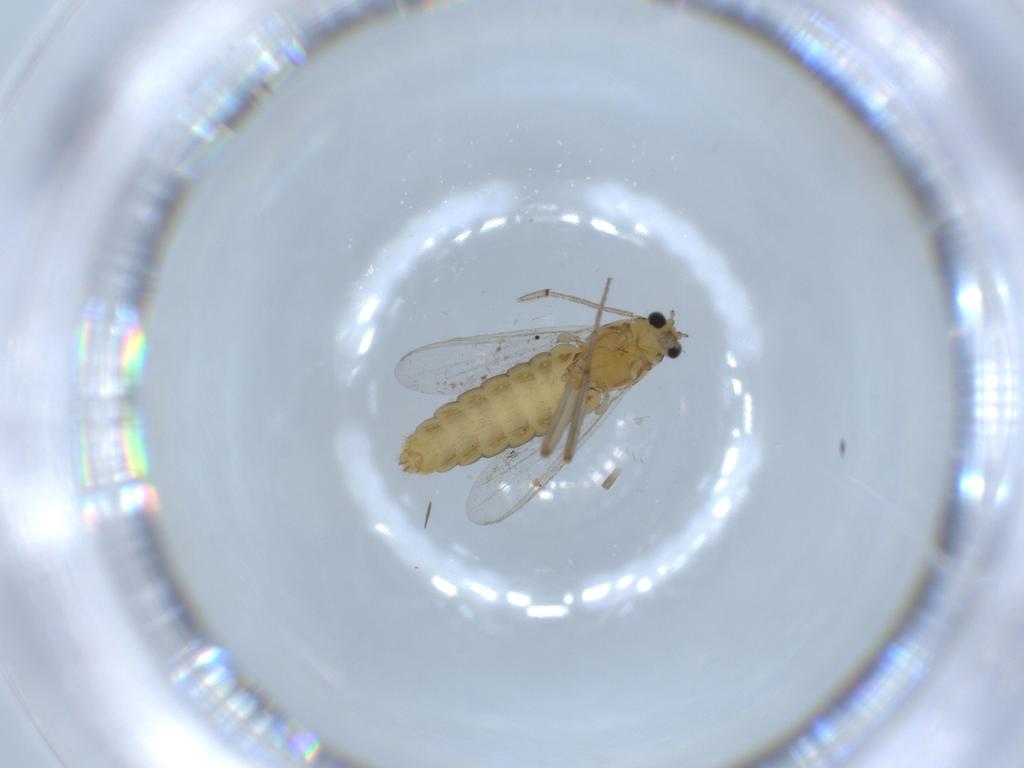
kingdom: Animalia
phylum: Arthropoda
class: Insecta
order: Diptera
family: Chironomidae
